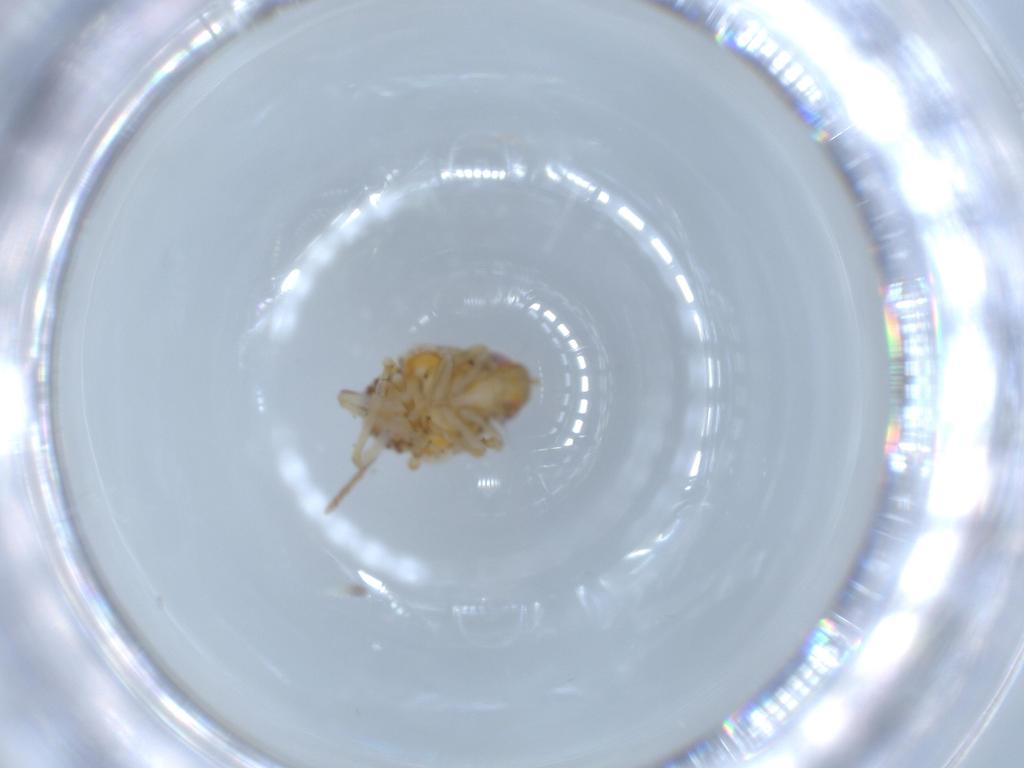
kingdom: Animalia
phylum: Arthropoda
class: Insecta
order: Hemiptera
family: Issidae
